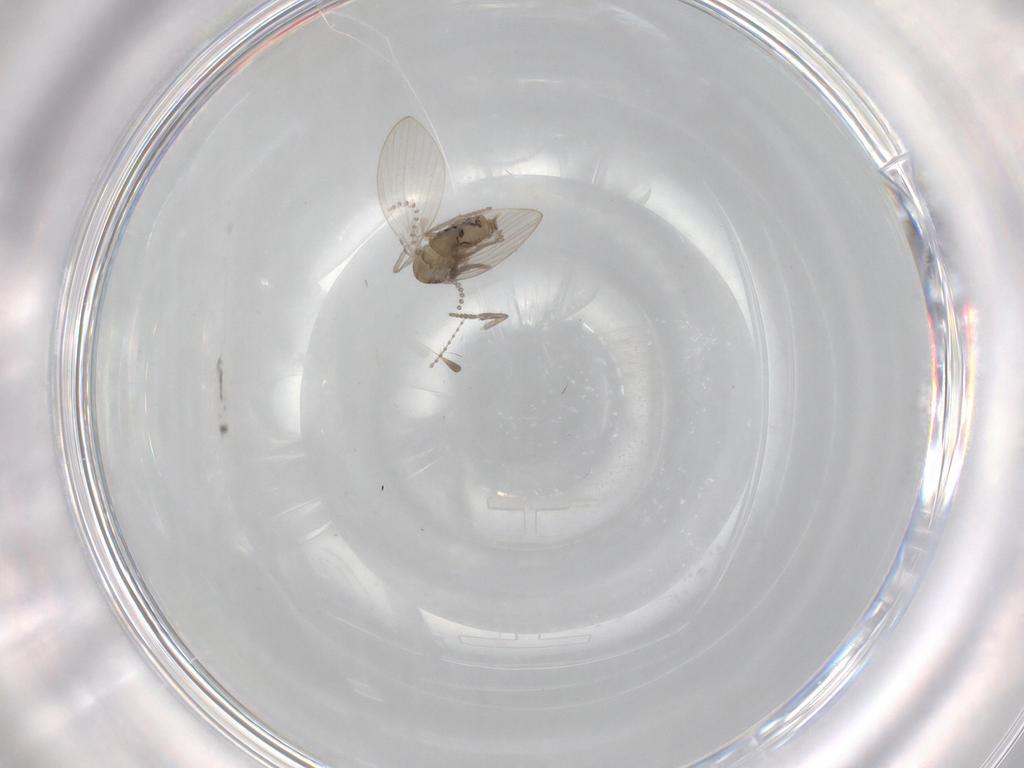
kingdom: Animalia
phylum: Arthropoda
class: Insecta
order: Diptera
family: Psychodidae
